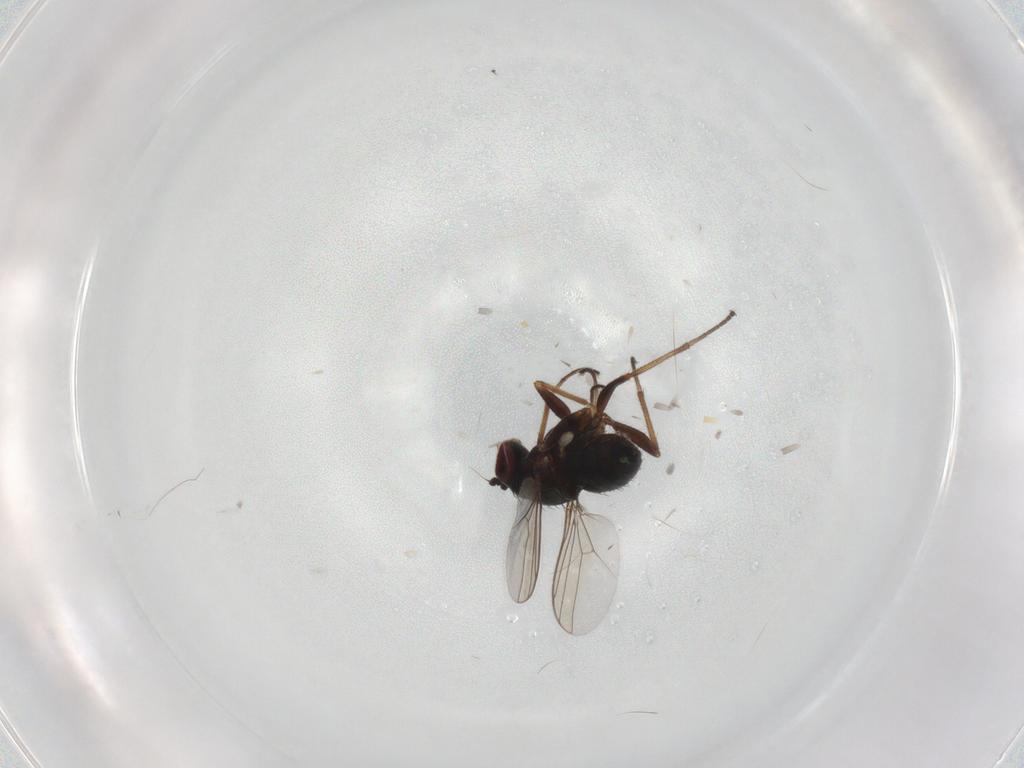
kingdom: Animalia
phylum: Arthropoda
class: Insecta
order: Diptera
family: Dolichopodidae
